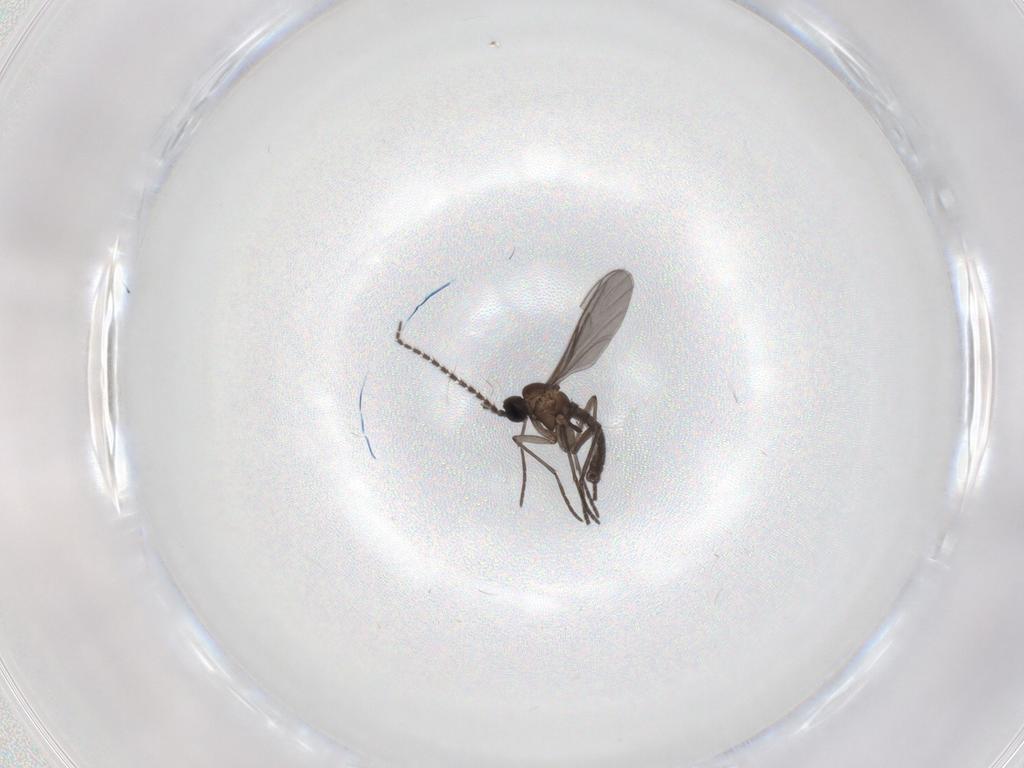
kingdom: Animalia
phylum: Arthropoda
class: Insecta
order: Diptera
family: Chironomidae
